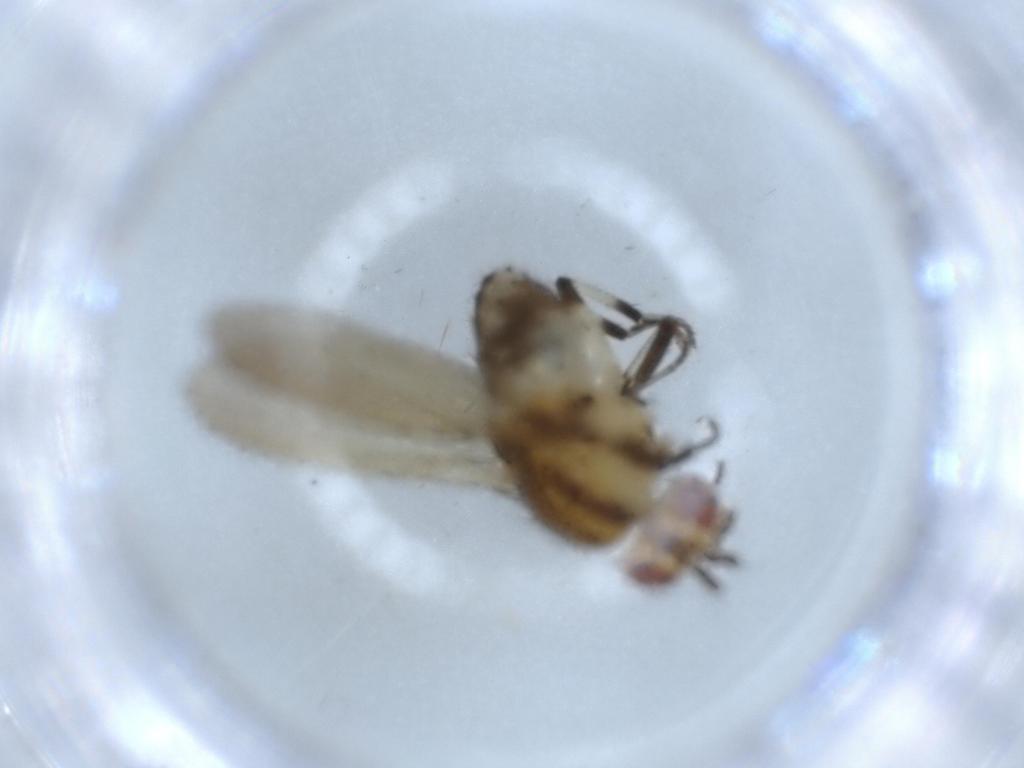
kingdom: Animalia
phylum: Arthropoda
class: Insecta
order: Diptera
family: Lauxaniidae
